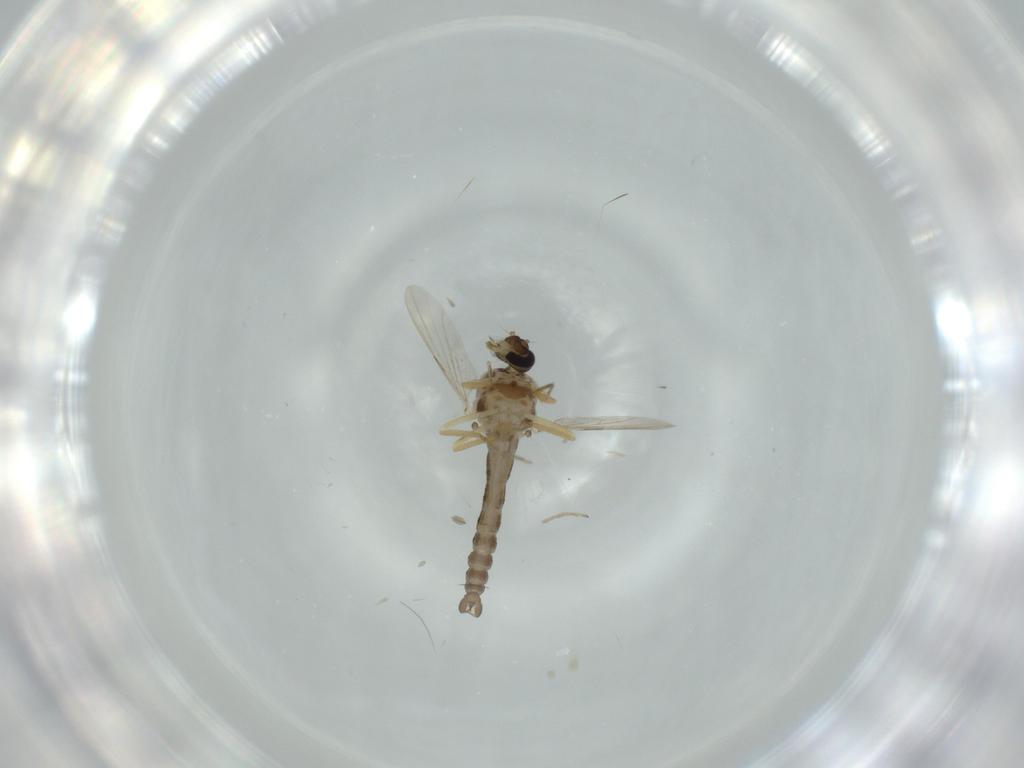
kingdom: Animalia
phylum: Arthropoda
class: Insecta
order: Diptera
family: Ceratopogonidae
